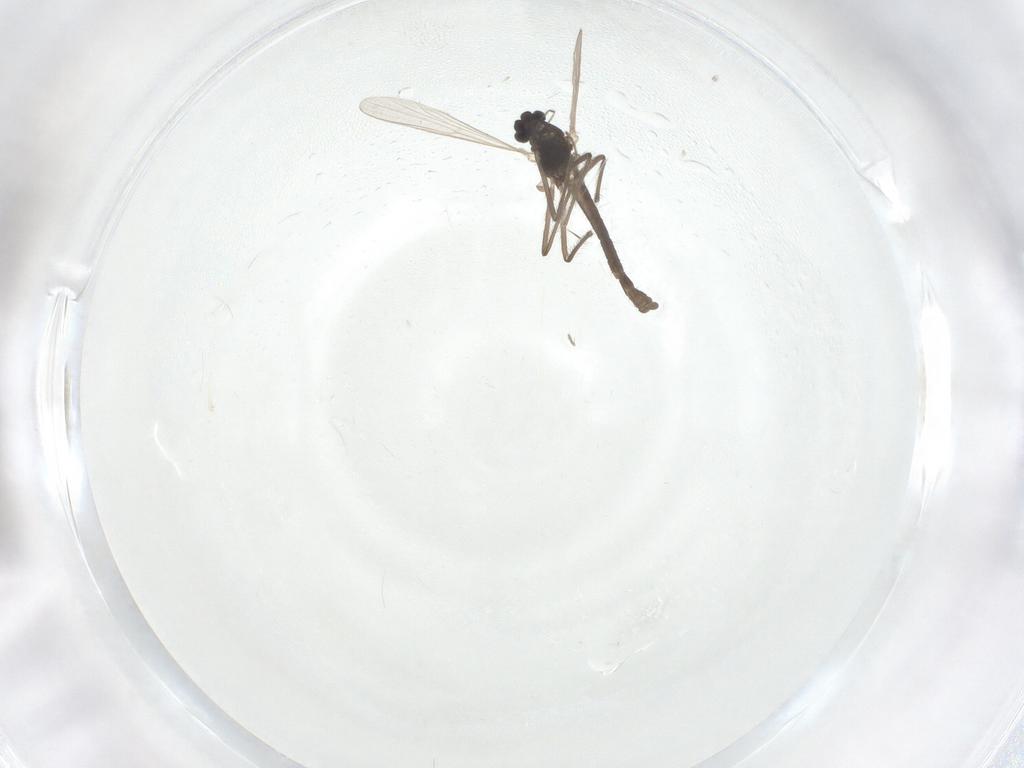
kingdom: Animalia
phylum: Arthropoda
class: Insecta
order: Diptera
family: Chironomidae
